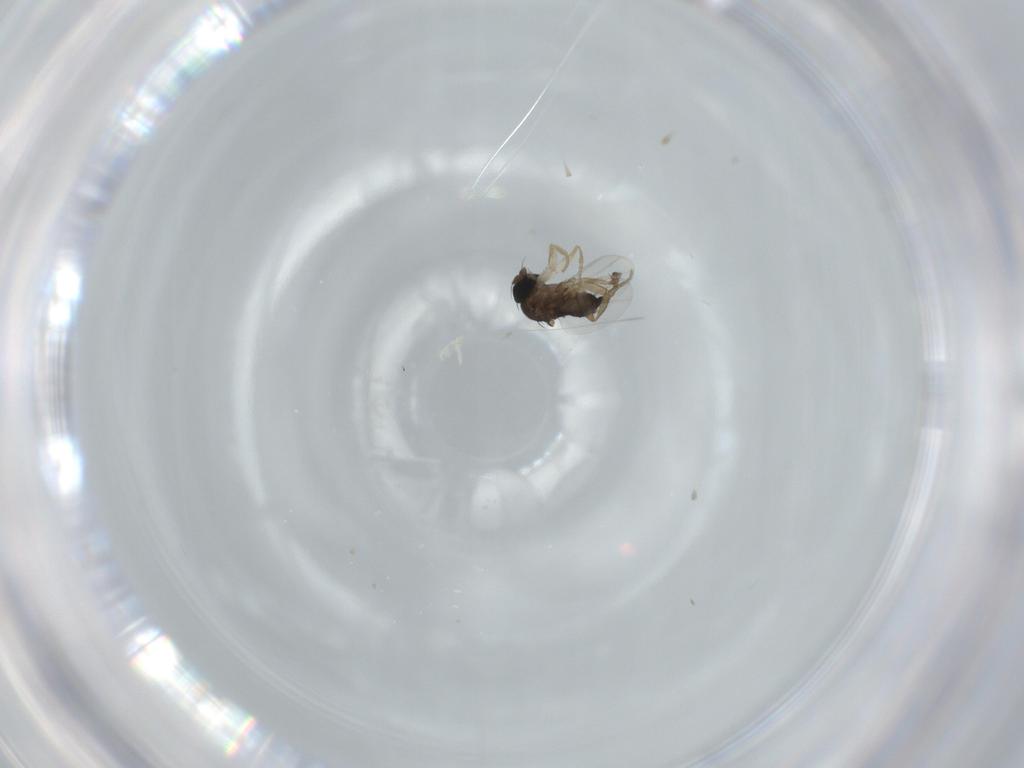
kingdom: Animalia
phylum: Arthropoda
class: Insecta
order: Diptera
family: Phoridae
